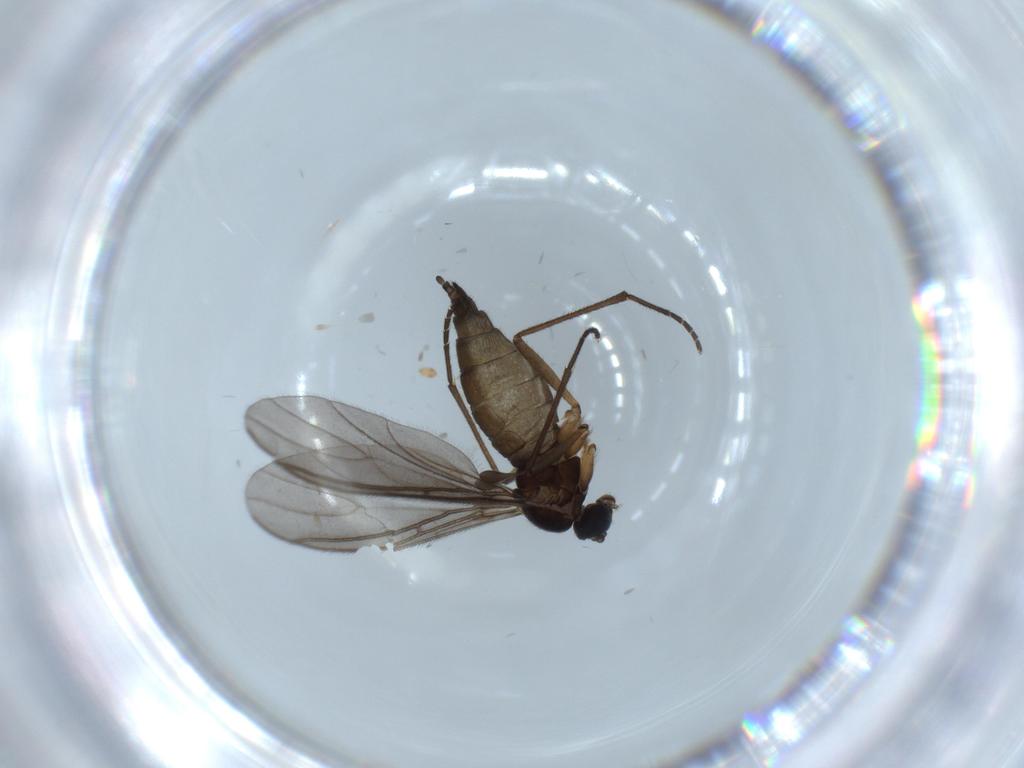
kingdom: Animalia
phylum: Arthropoda
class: Insecta
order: Diptera
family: Sciaridae
